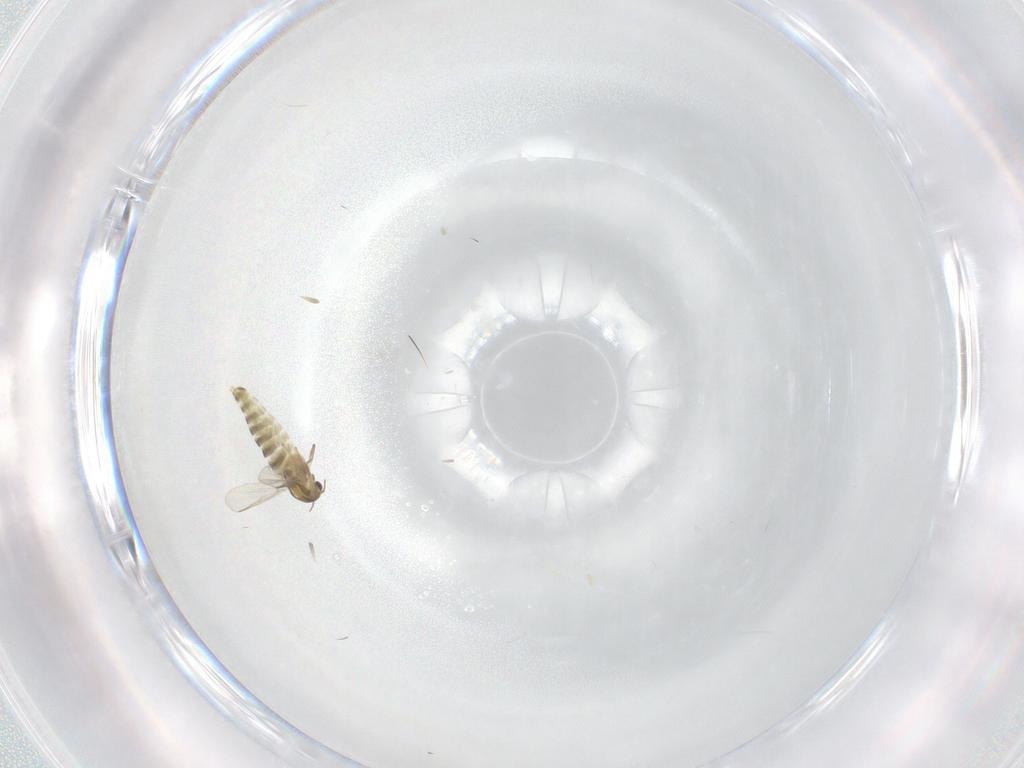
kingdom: Animalia
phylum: Arthropoda
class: Insecta
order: Diptera
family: Chironomidae
